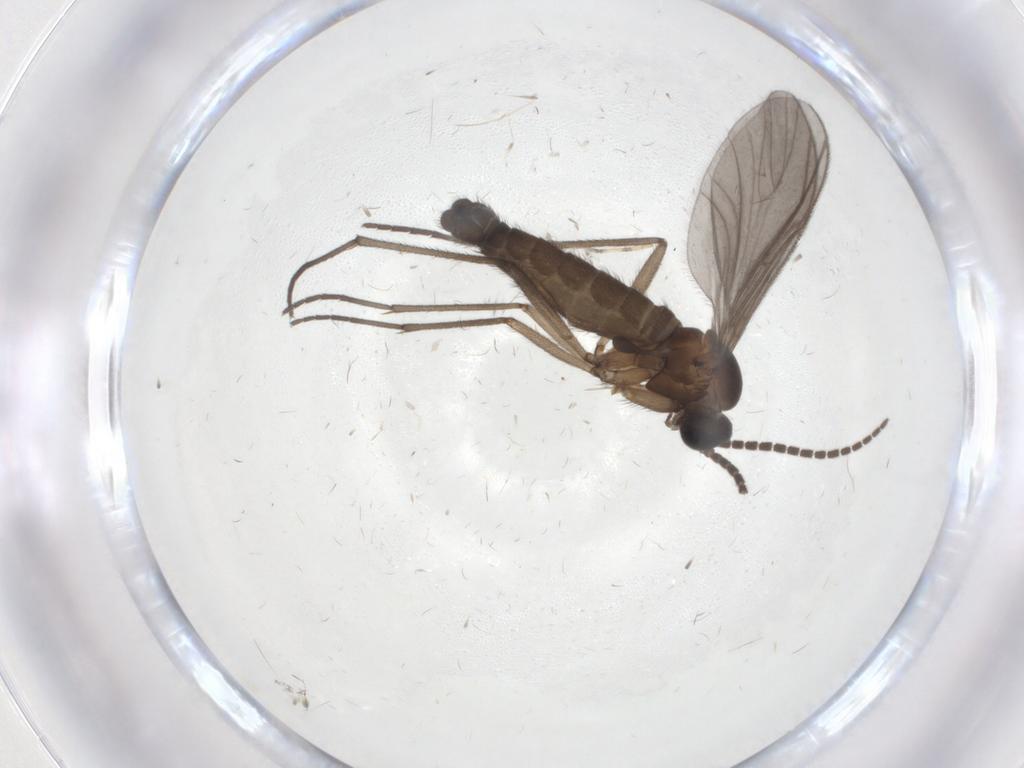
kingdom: Animalia
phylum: Arthropoda
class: Insecta
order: Diptera
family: Sciaridae
